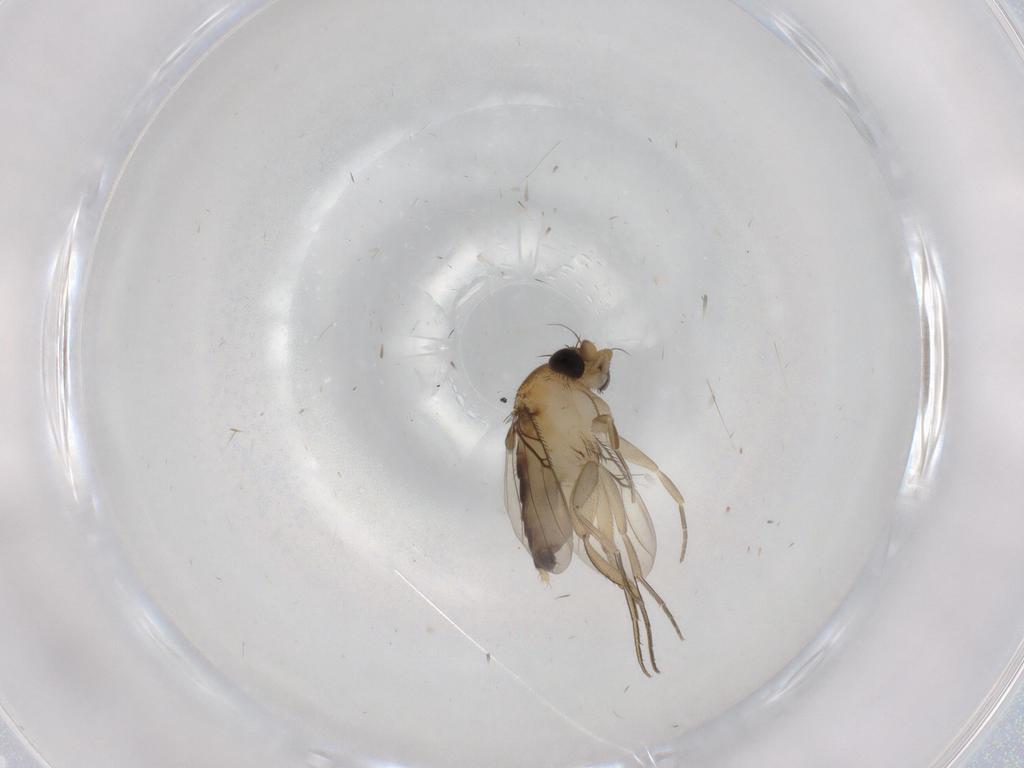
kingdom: Animalia
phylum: Arthropoda
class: Insecta
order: Diptera
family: Phoridae
